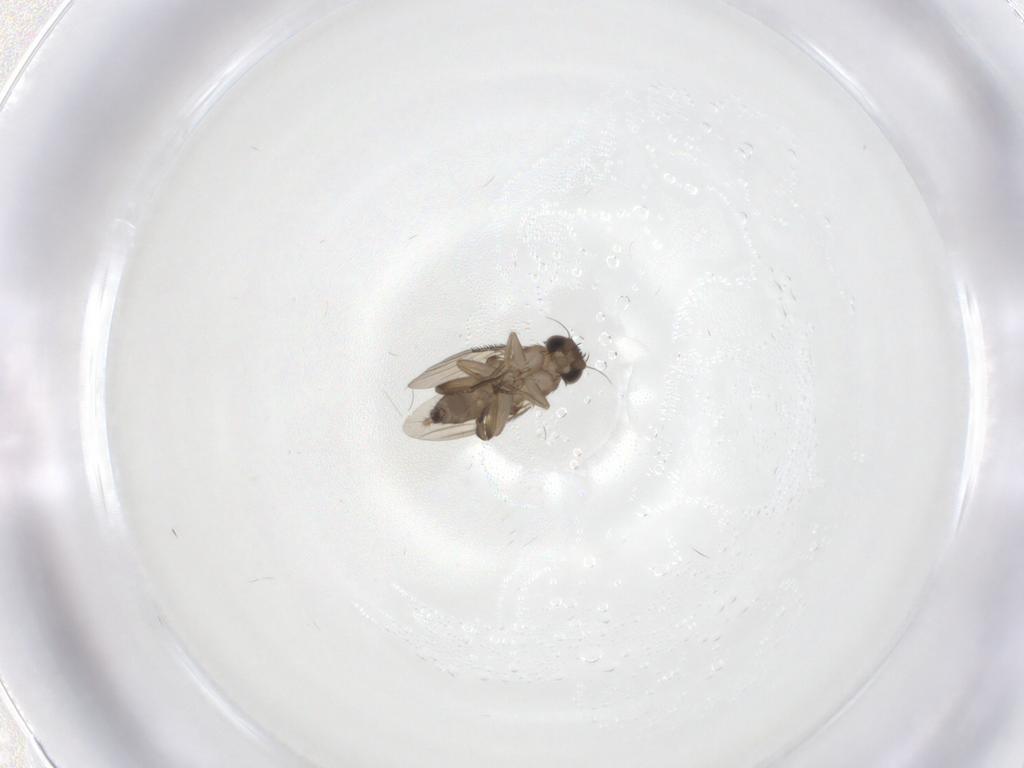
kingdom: Animalia
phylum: Arthropoda
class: Insecta
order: Diptera
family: Phoridae
